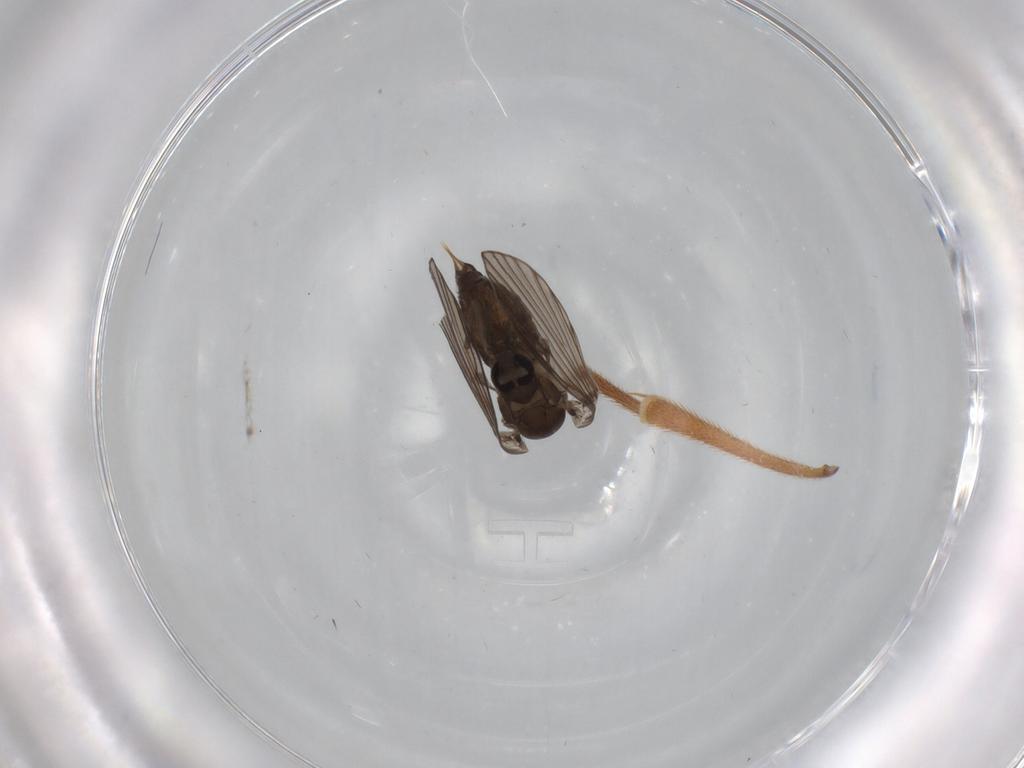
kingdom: Animalia
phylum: Arthropoda
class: Insecta
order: Diptera
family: Psychodidae
